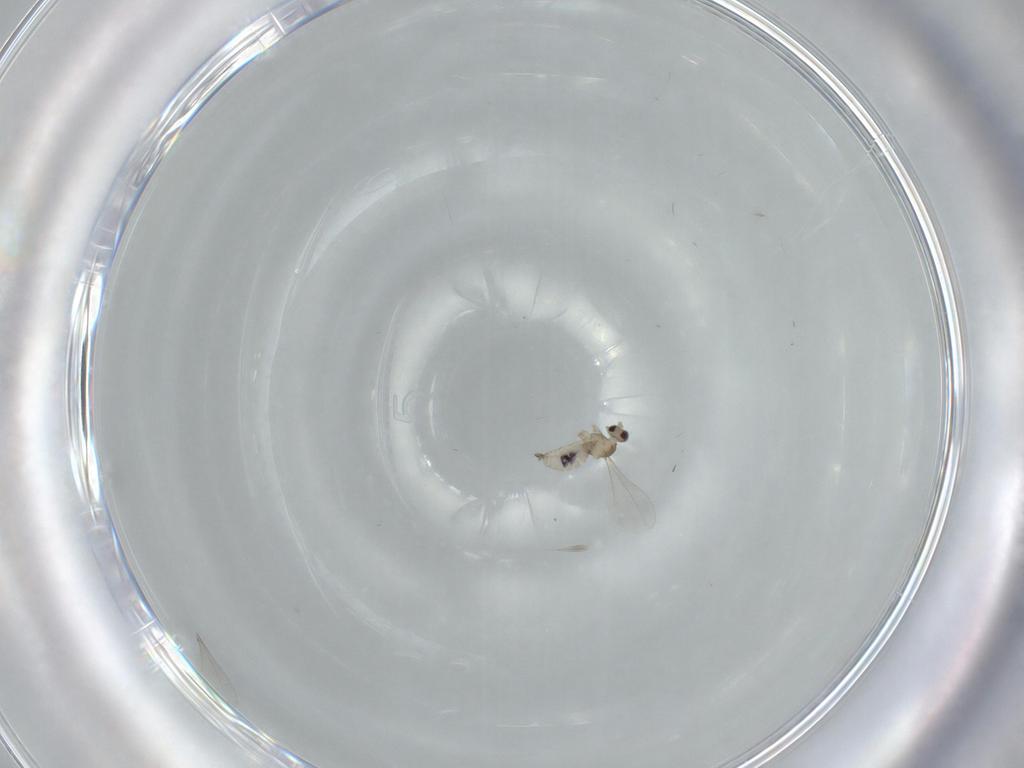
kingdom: Animalia
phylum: Arthropoda
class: Insecta
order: Diptera
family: Cecidomyiidae
